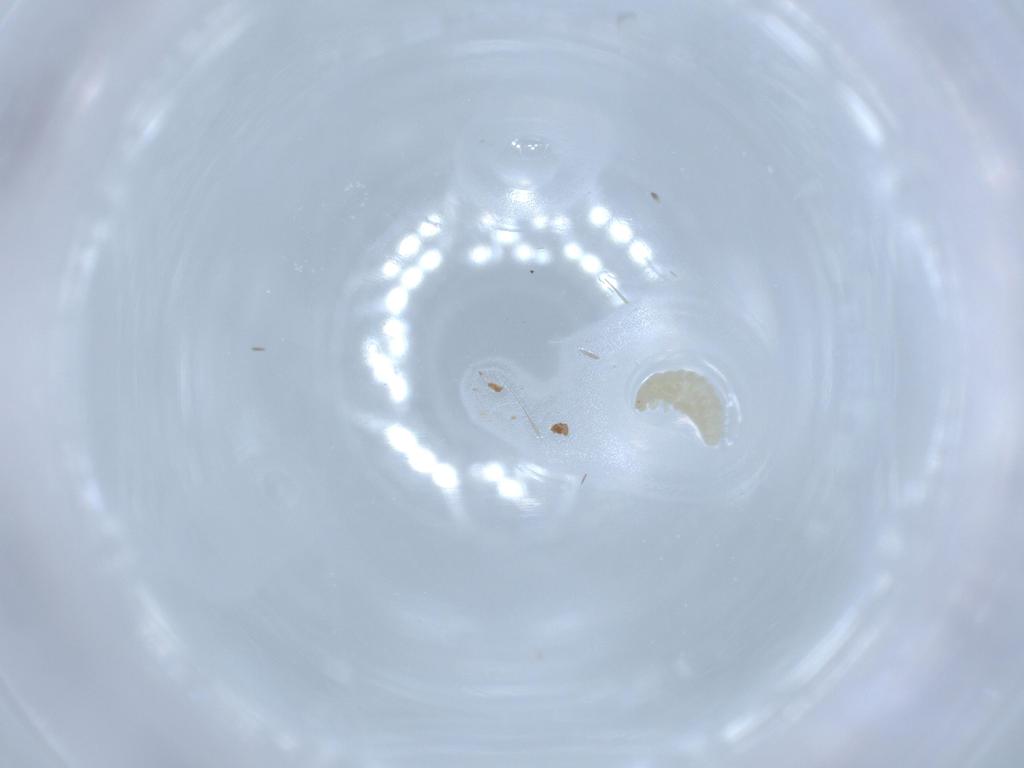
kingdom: Animalia
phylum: Arthropoda
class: Insecta
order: Coleoptera
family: Cantharidae
